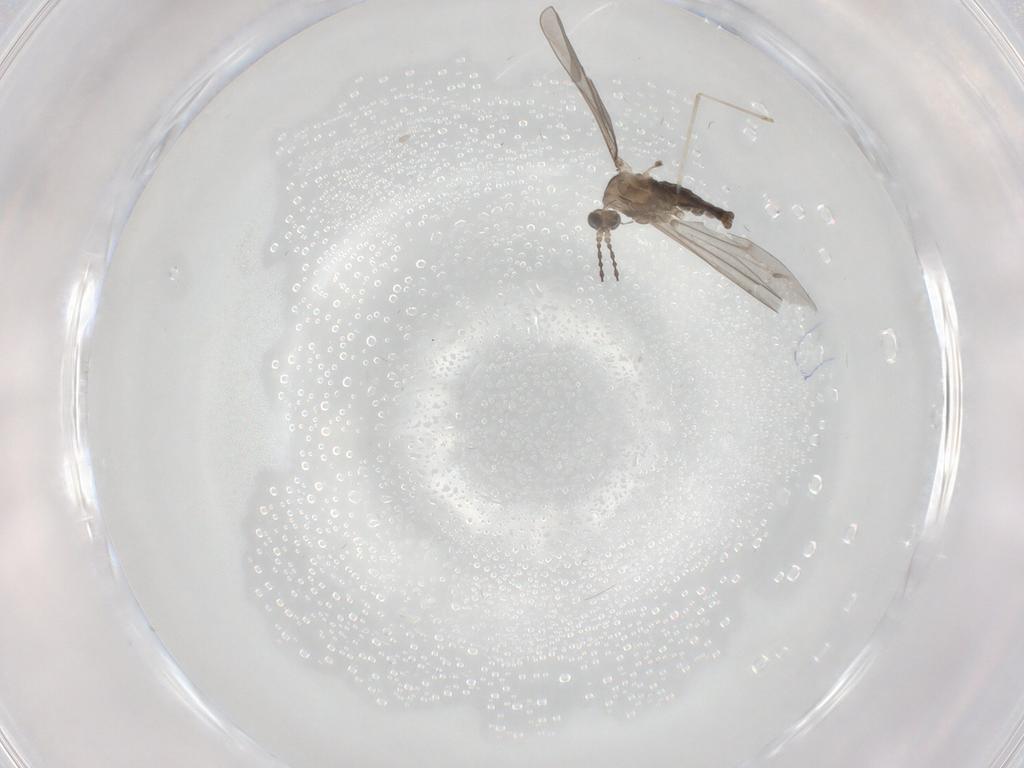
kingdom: Animalia
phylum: Arthropoda
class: Insecta
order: Diptera
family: Cecidomyiidae
